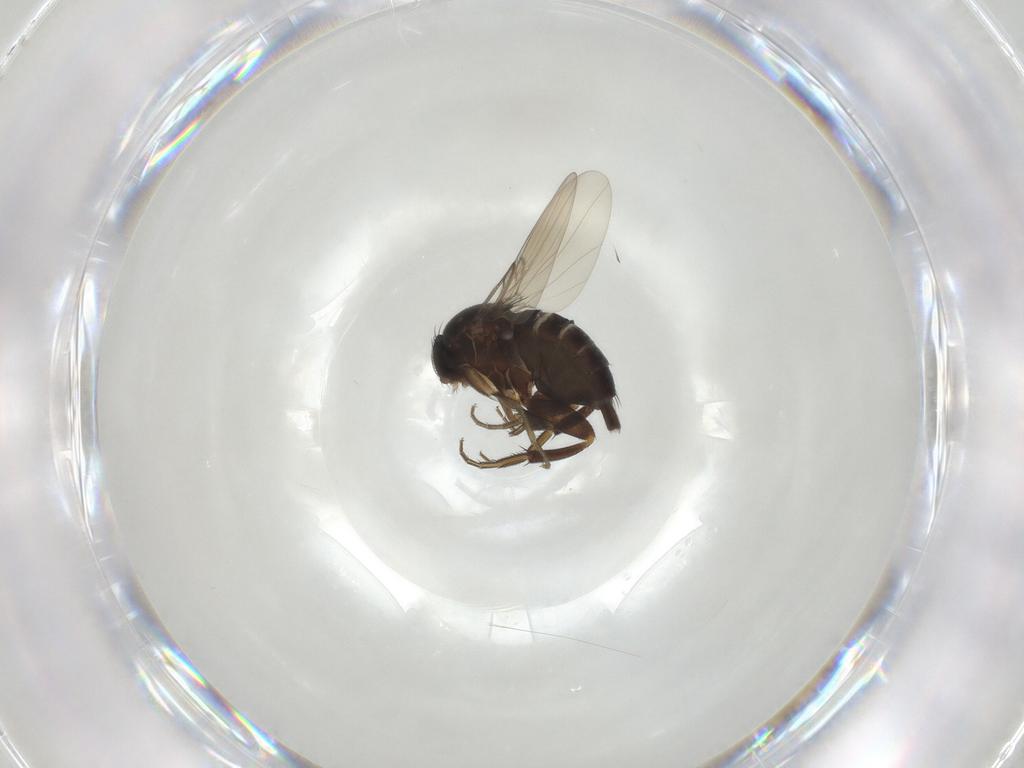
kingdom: Animalia
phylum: Arthropoda
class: Insecta
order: Diptera
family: Phoridae
